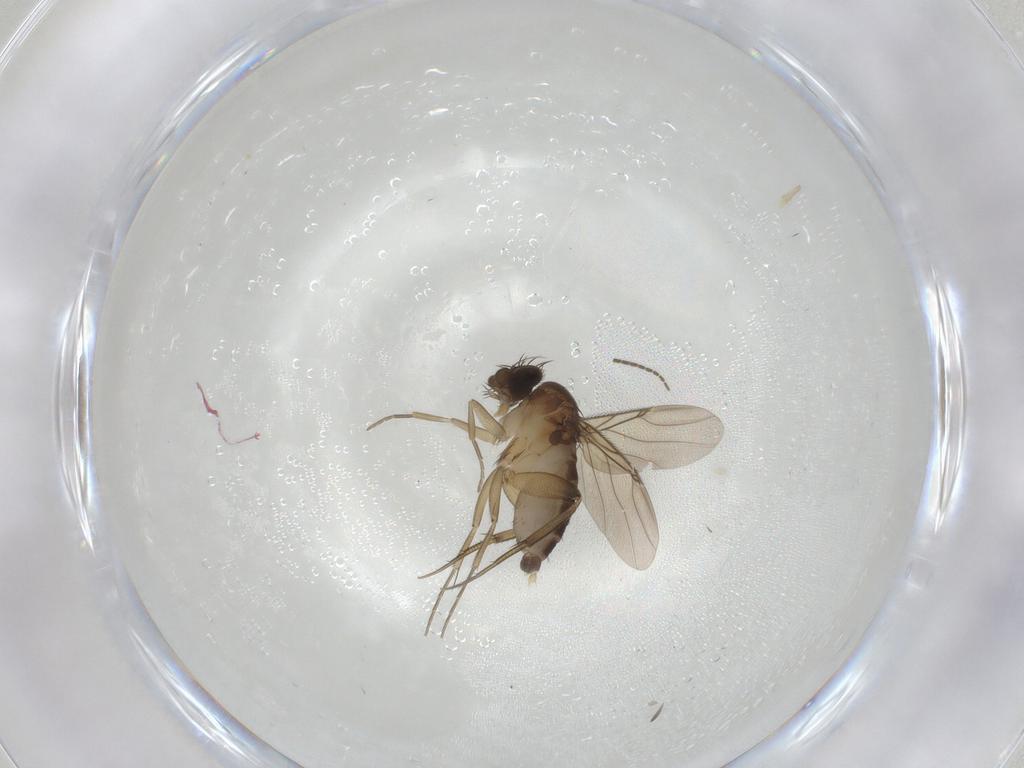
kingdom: Animalia
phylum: Arthropoda
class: Insecta
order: Diptera
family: Phoridae
